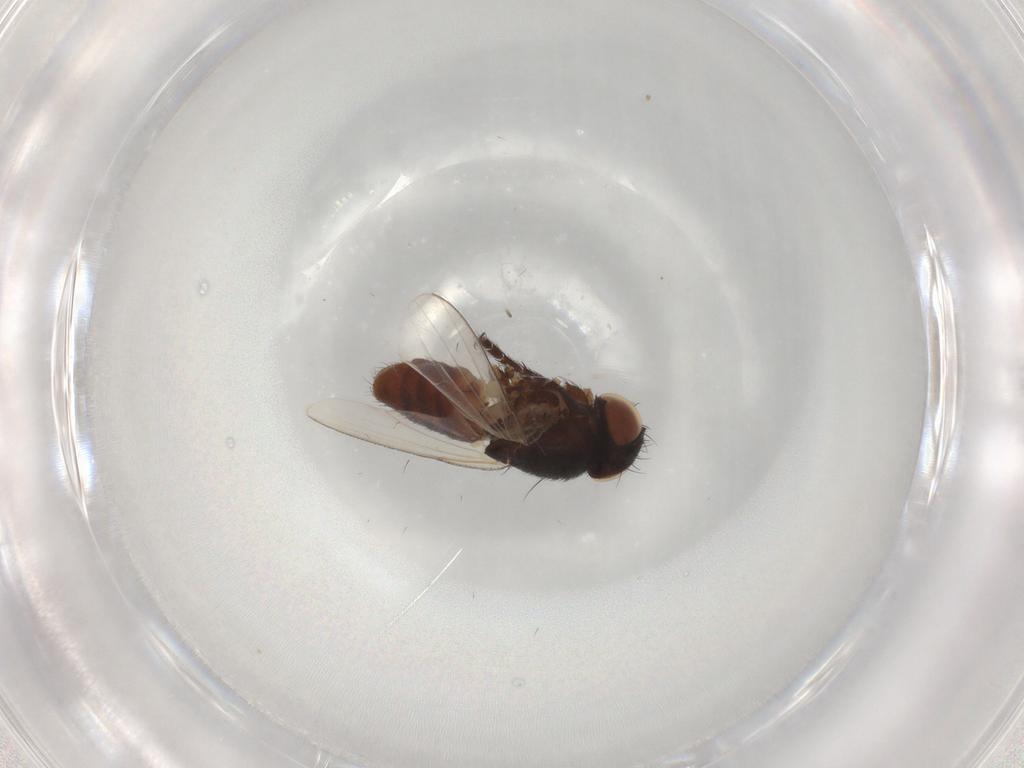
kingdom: Animalia
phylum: Arthropoda
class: Insecta
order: Diptera
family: Milichiidae
